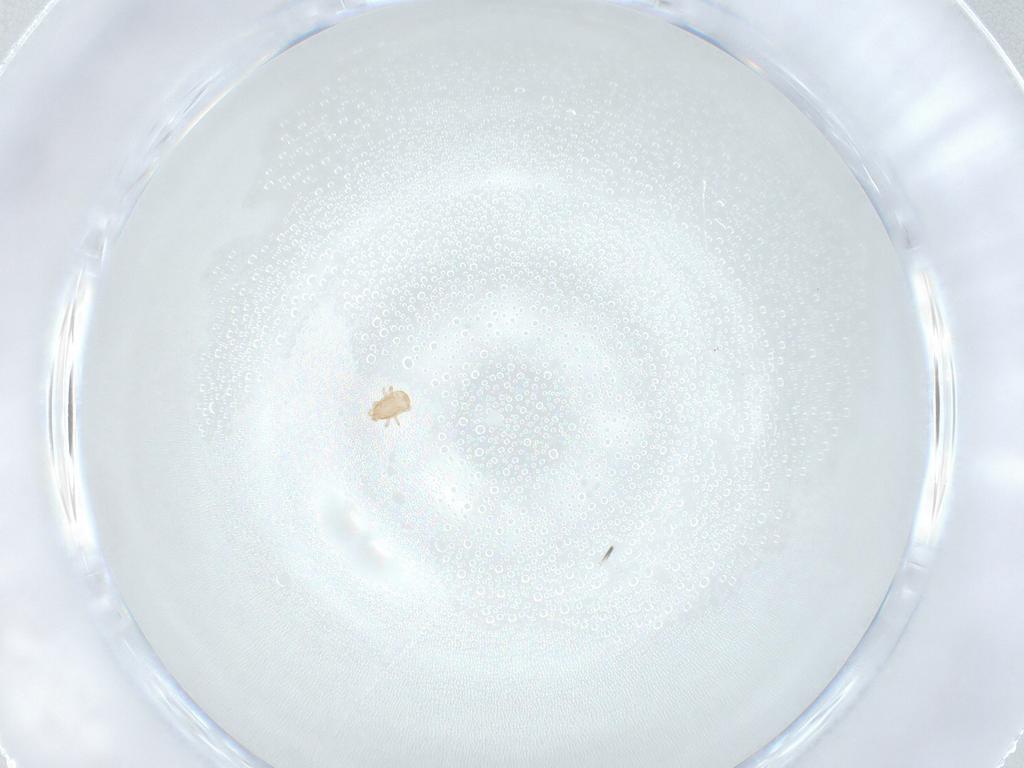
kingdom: Animalia
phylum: Arthropoda
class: Arachnida
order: Mesostigmata
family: Ascidae
